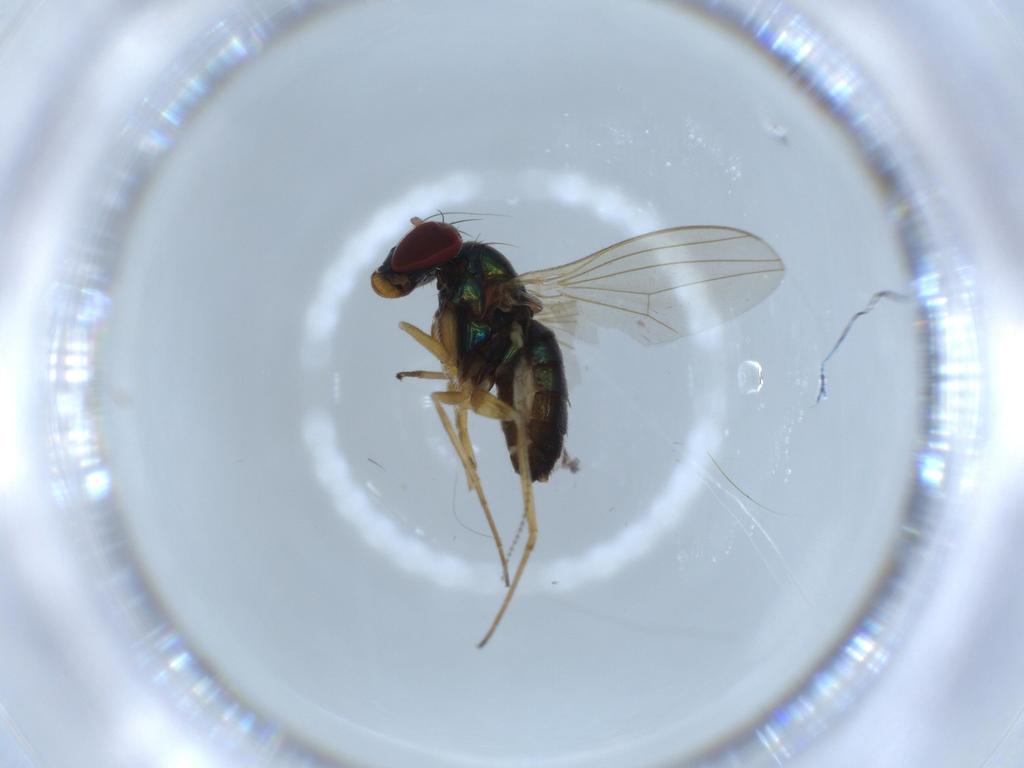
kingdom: Animalia
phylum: Arthropoda
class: Insecta
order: Diptera
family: Dolichopodidae
